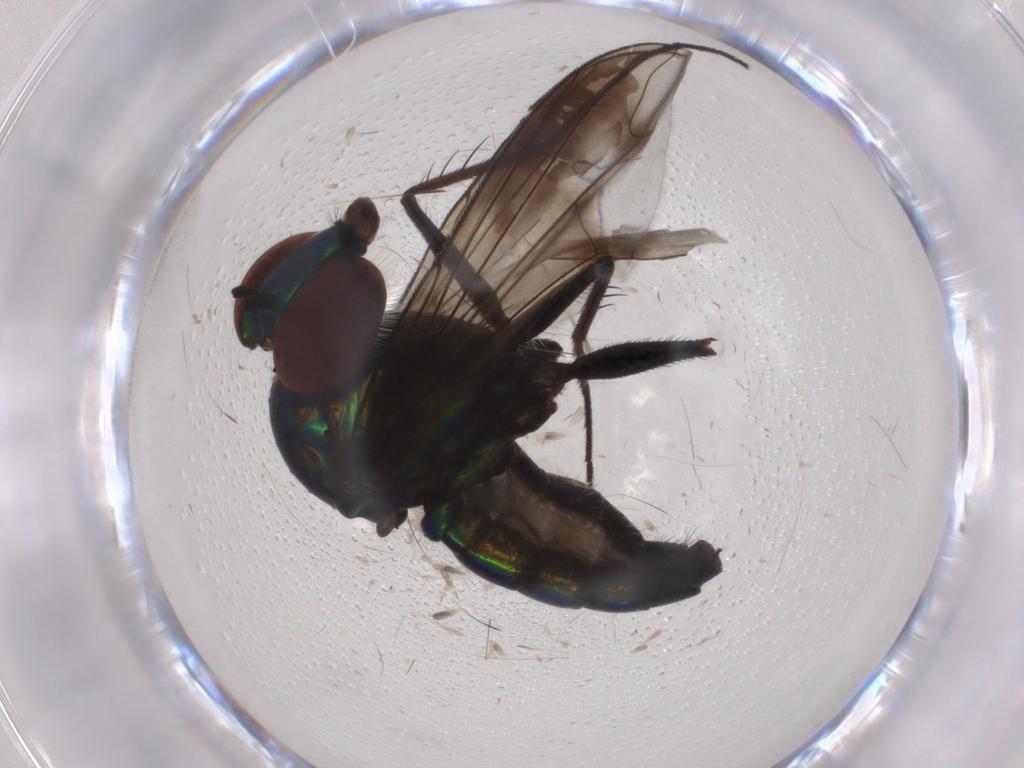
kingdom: Animalia
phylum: Arthropoda
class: Insecta
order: Diptera
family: Dolichopodidae
